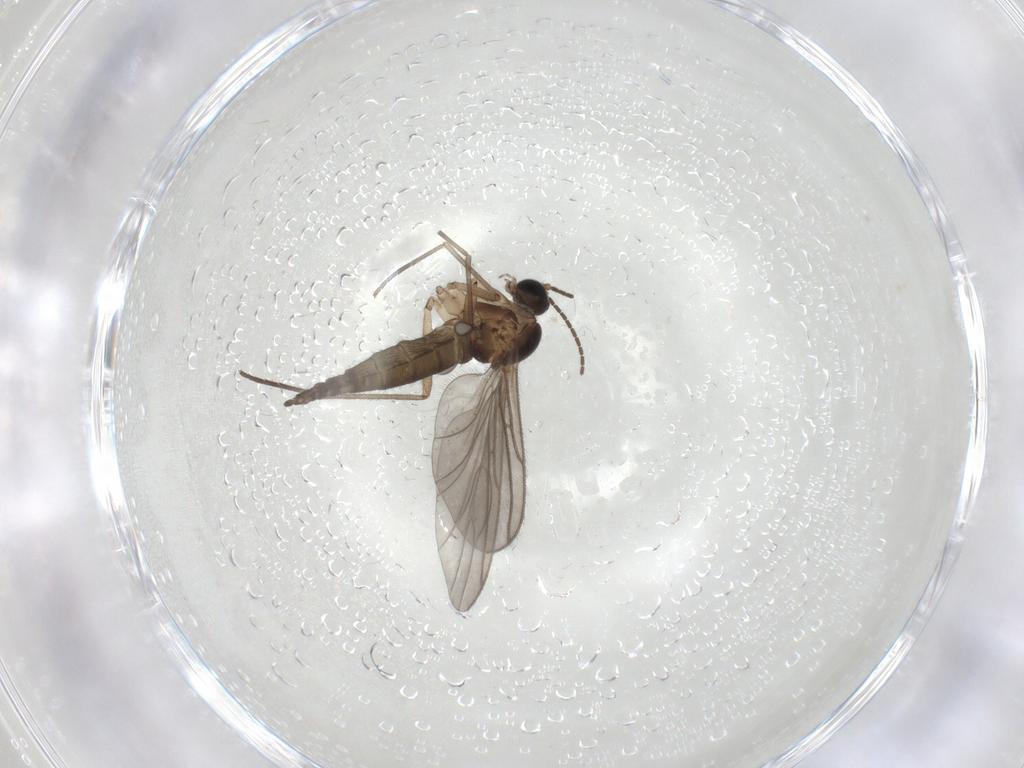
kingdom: Animalia
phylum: Arthropoda
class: Insecta
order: Diptera
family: Sciaridae
